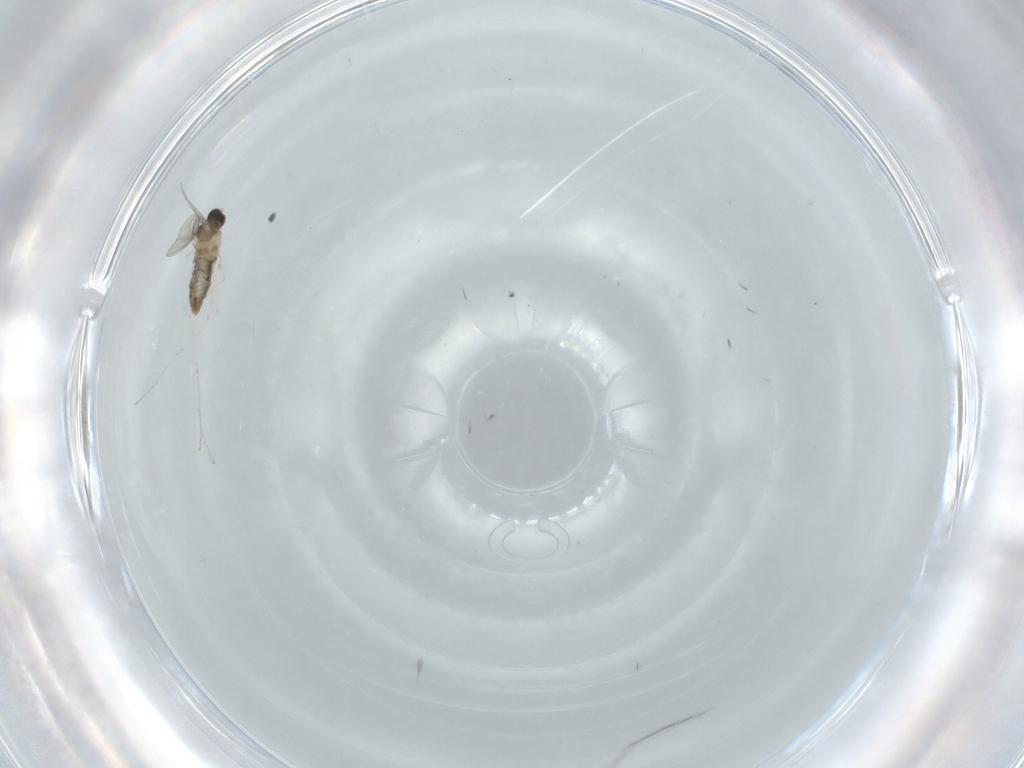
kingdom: Animalia
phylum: Arthropoda
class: Insecta
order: Diptera
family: Cecidomyiidae
